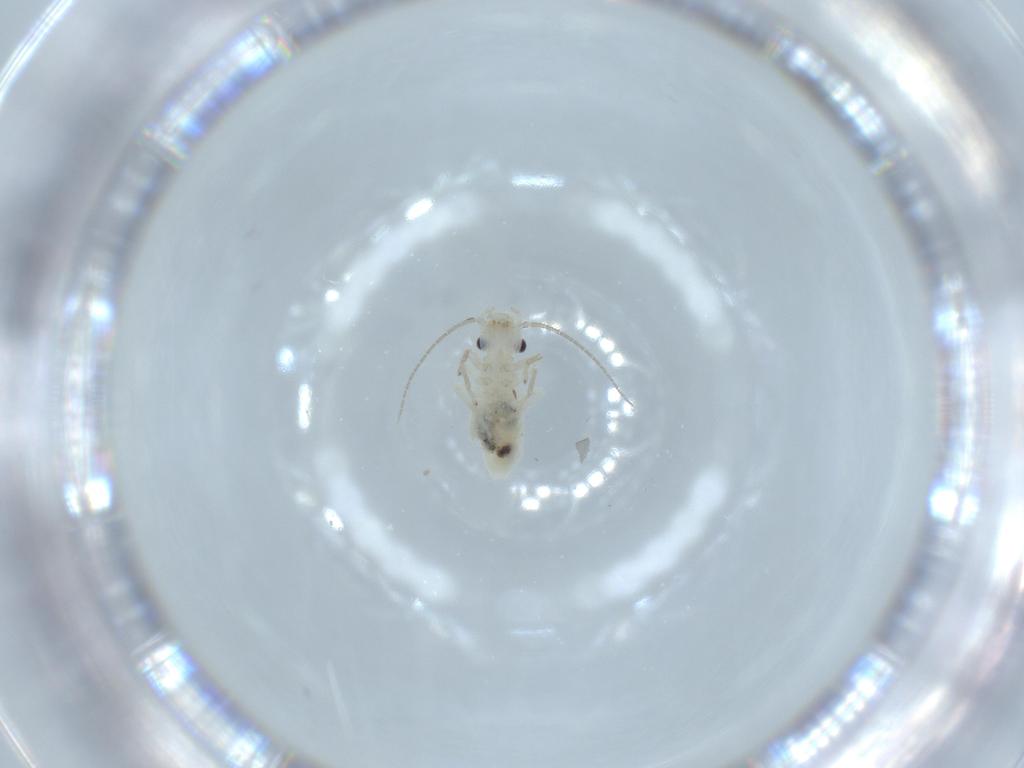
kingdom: Animalia
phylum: Arthropoda
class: Insecta
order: Psocodea
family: Caeciliusidae
